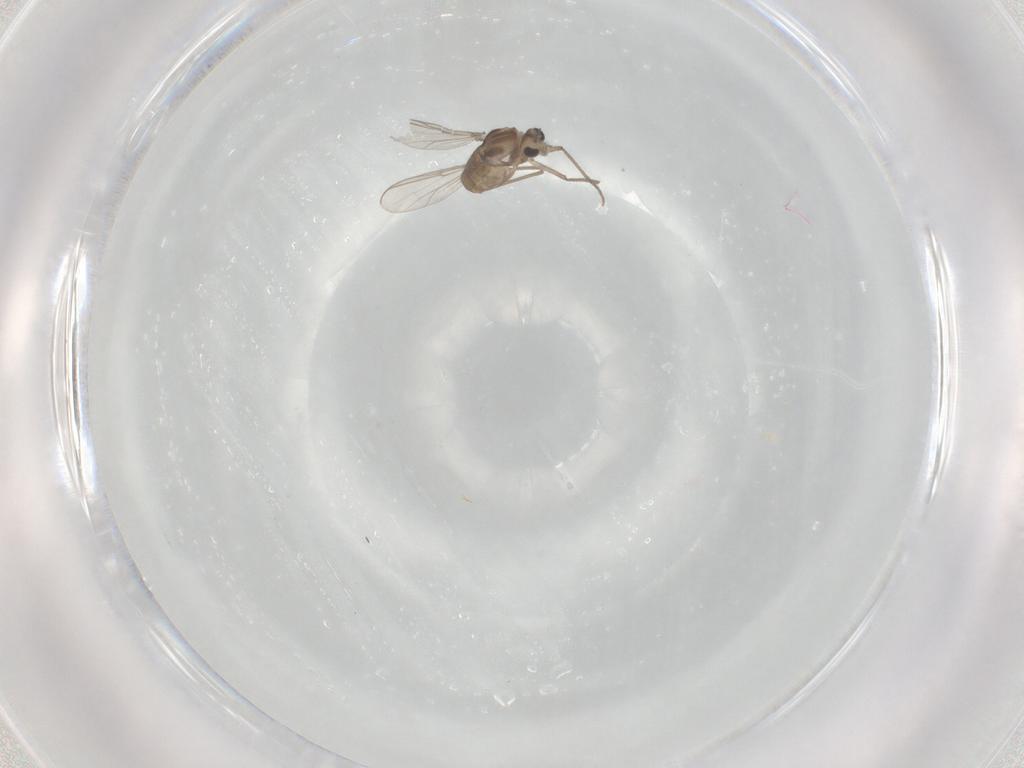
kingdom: Animalia
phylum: Arthropoda
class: Insecta
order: Diptera
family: Chironomidae
